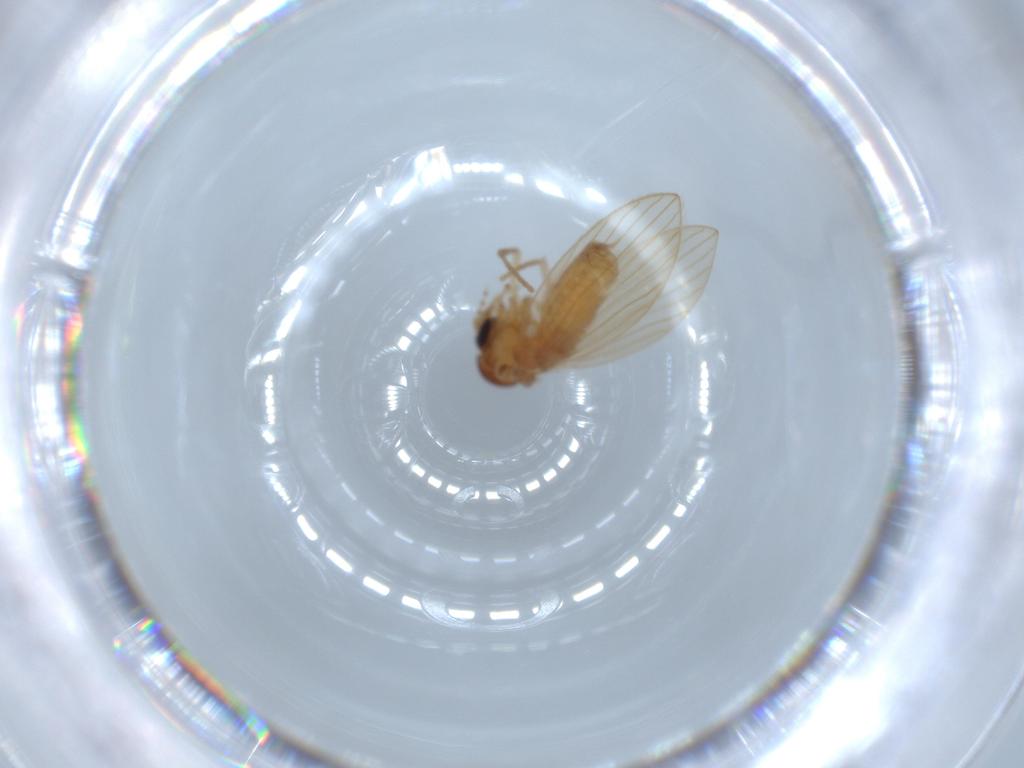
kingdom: Animalia
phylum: Arthropoda
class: Insecta
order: Diptera
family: Psychodidae
